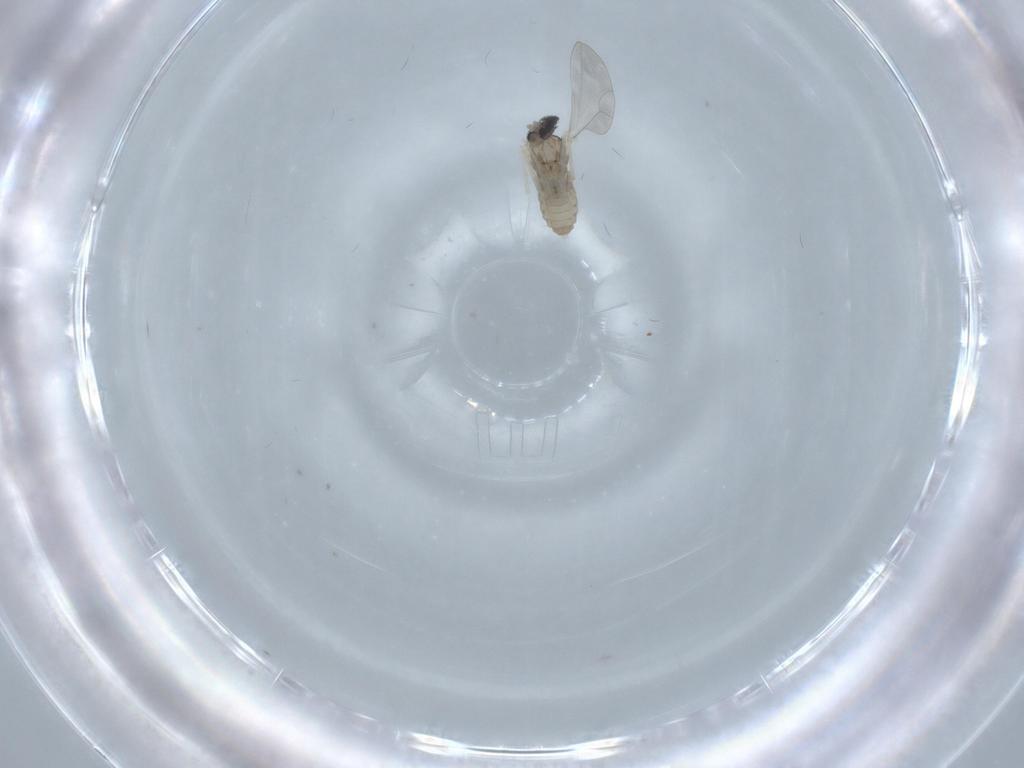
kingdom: Animalia
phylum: Arthropoda
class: Insecta
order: Diptera
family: Cecidomyiidae
